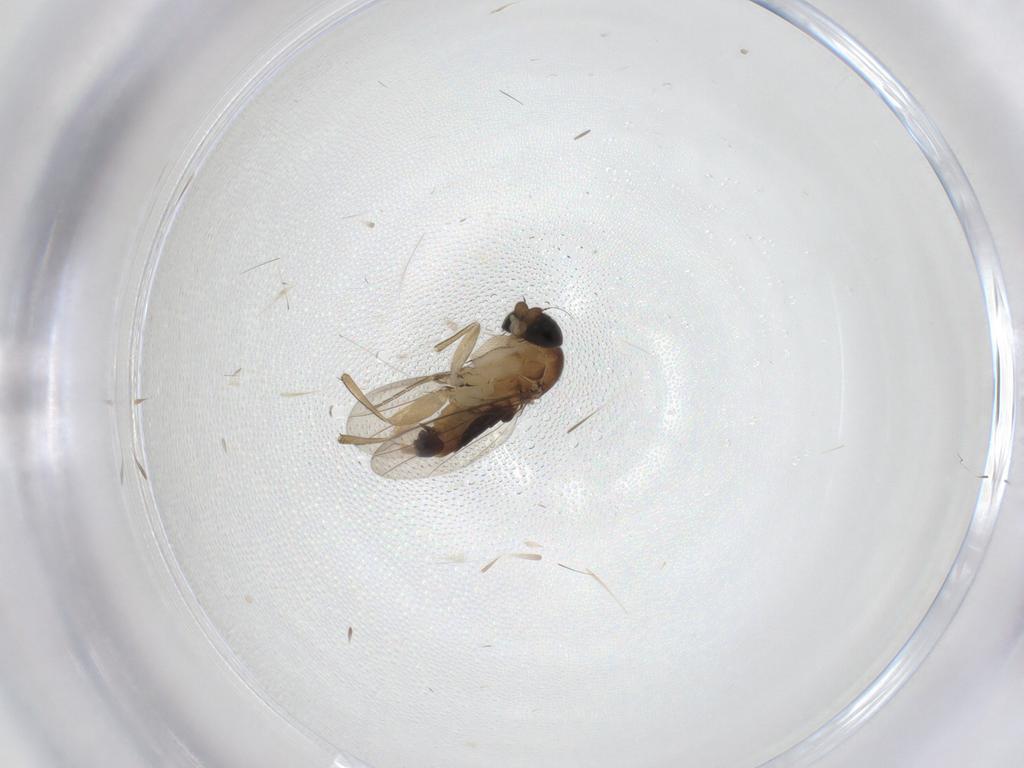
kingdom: Animalia
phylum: Arthropoda
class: Insecta
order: Diptera
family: Phoridae
